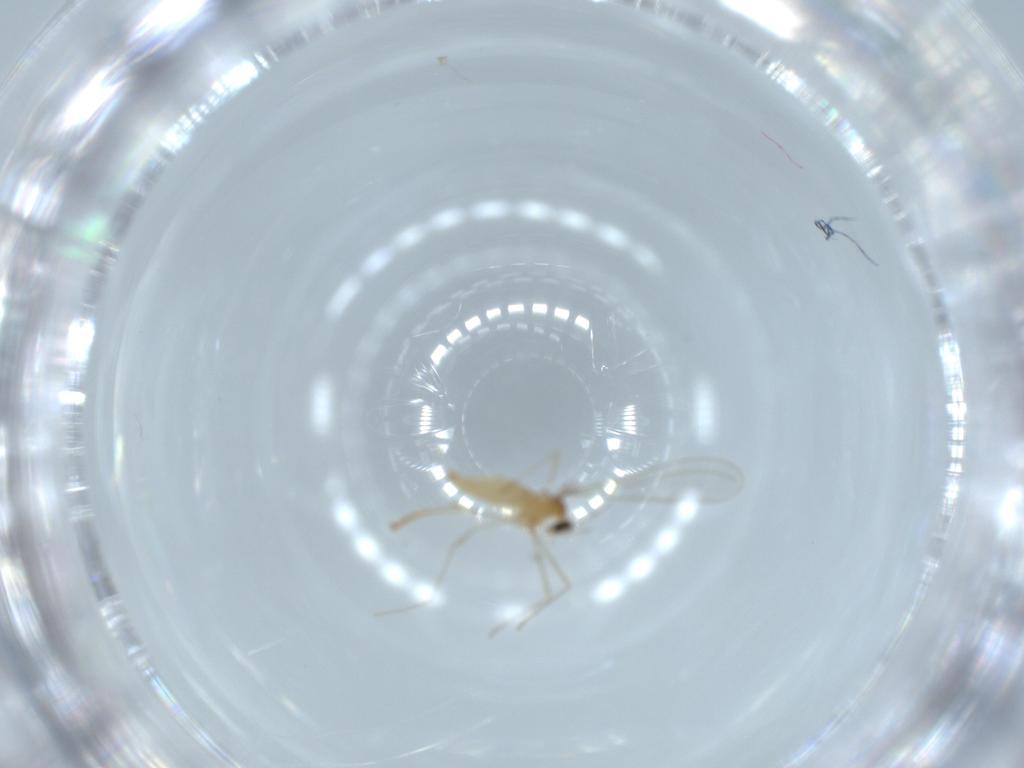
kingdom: Animalia
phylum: Arthropoda
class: Insecta
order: Diptera
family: Cecidomyiidae
